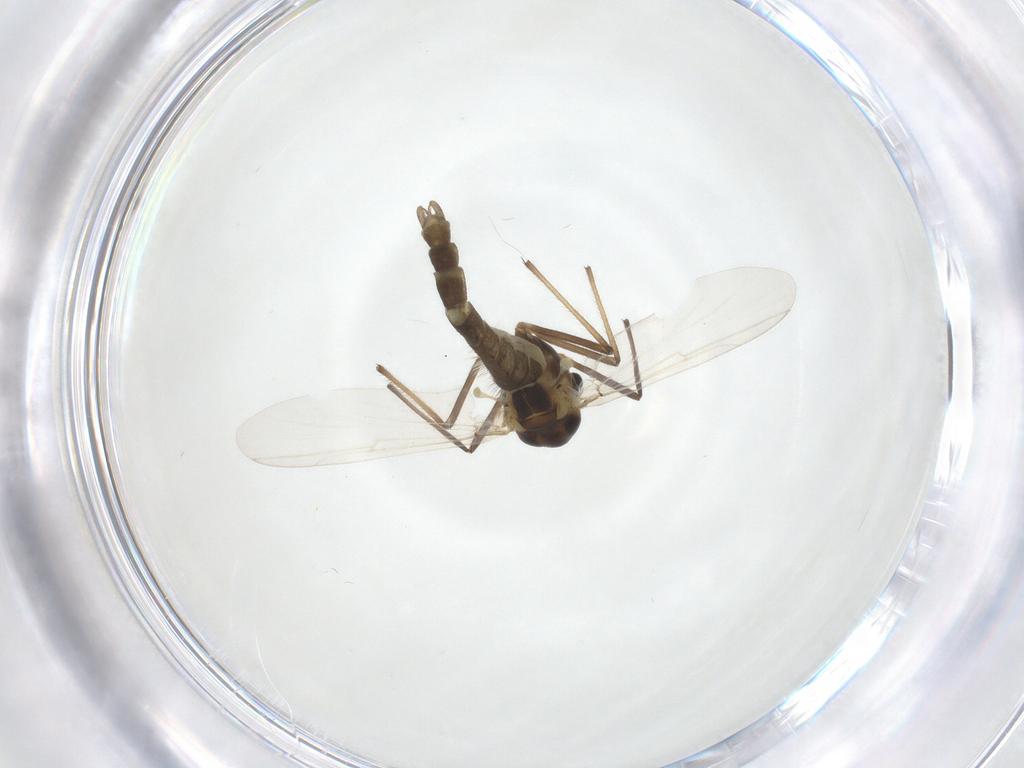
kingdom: Animalia
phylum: Arthropoda
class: Insecta
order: Diptera
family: Chironomidae
